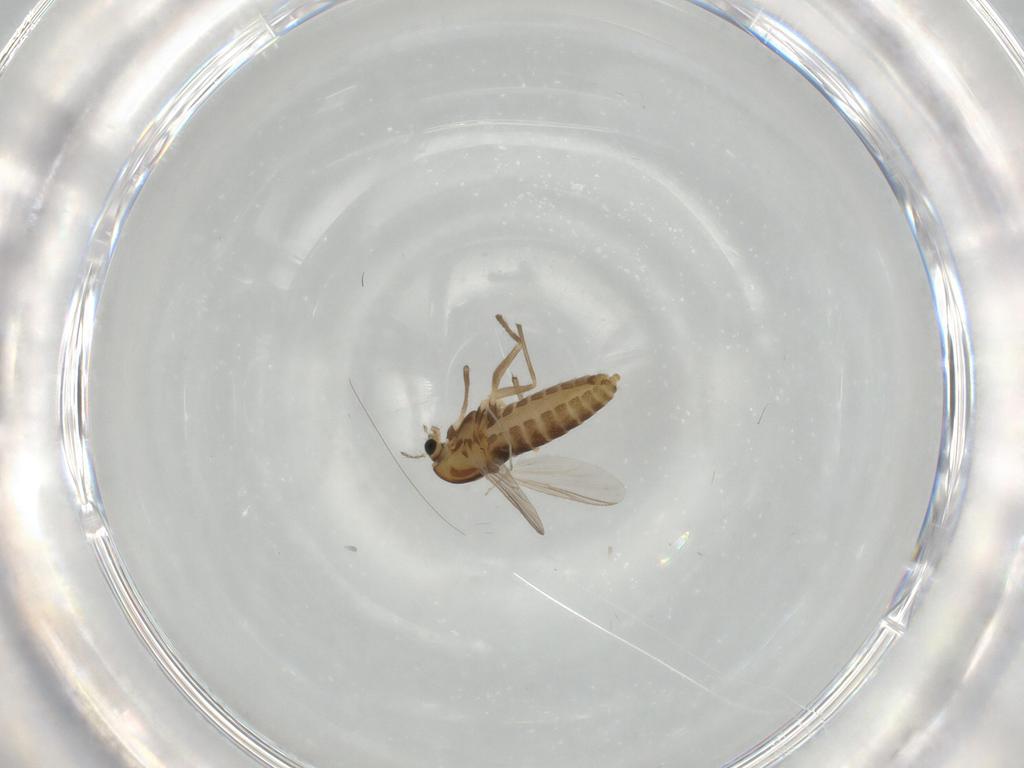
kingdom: Animalia
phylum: Arthropoda
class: Insecta
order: Diptera
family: Chironomidae
